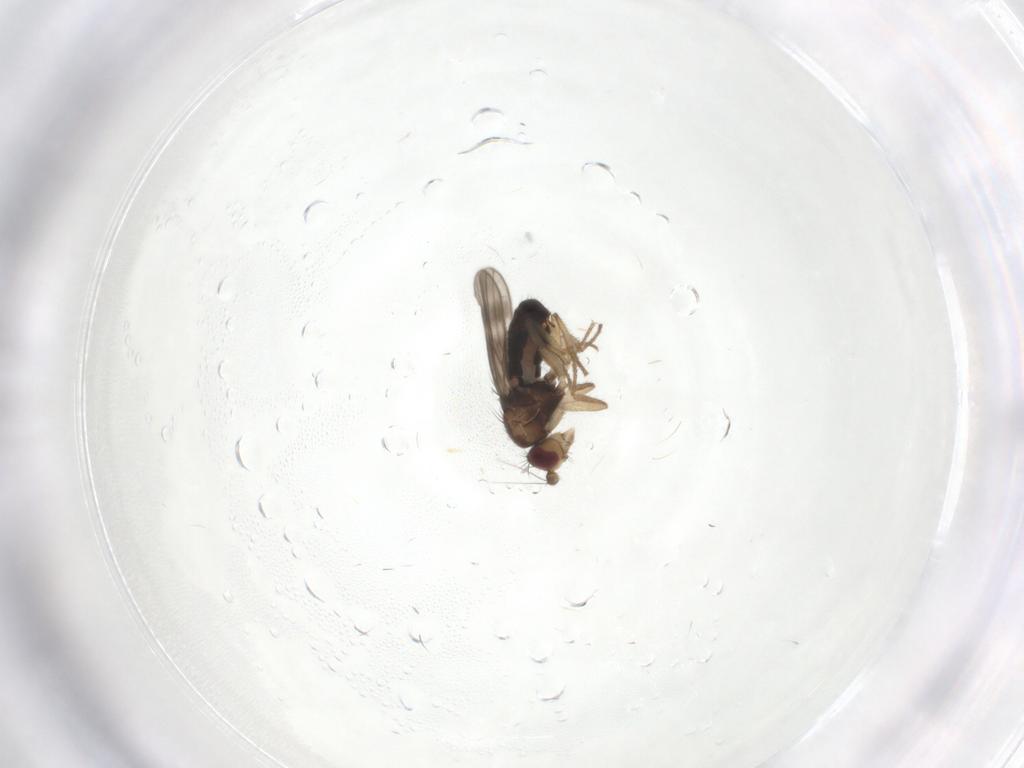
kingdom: Animalia
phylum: Arthropoda
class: Insecta
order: Diptera
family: Sphaeroceridae
